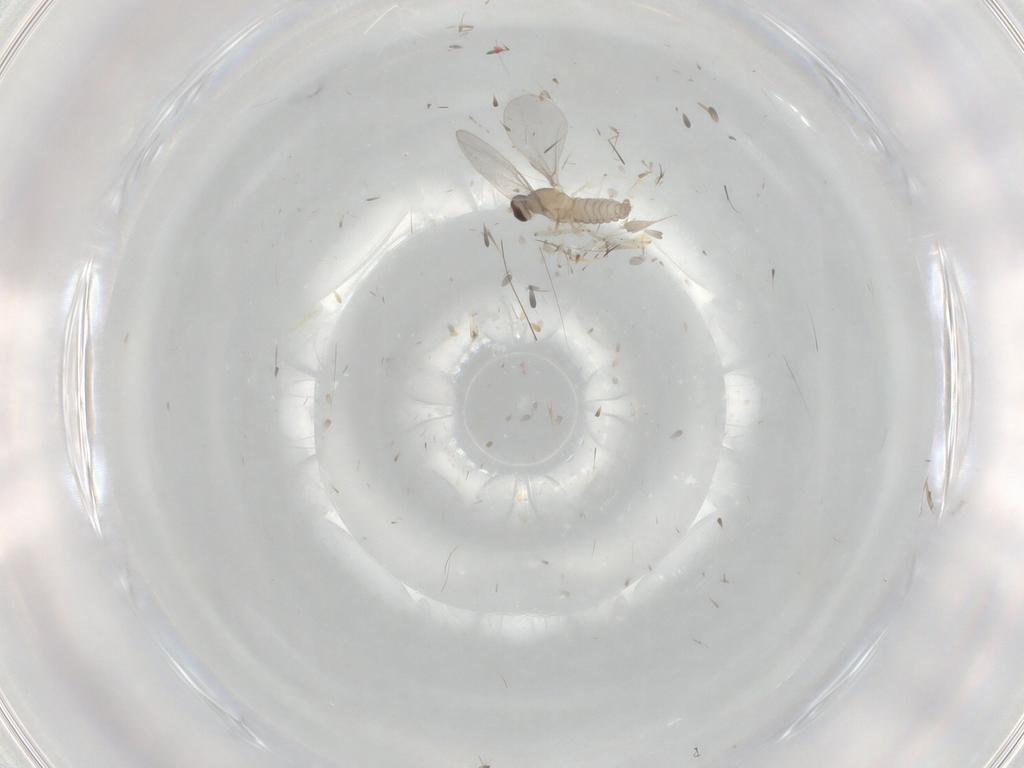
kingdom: Animalia
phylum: Arthropoda
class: Insecta
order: Diptera
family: Cecidomyiidae
